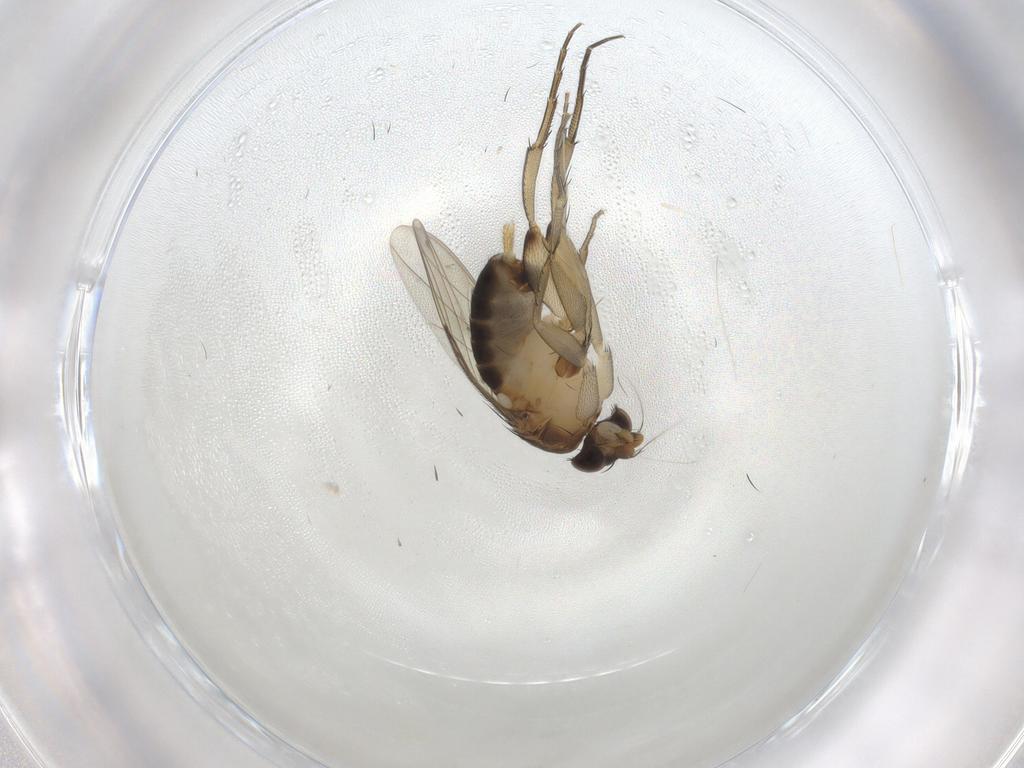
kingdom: Animalia
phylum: Arthropoda
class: Insecta
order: Diptera
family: Phoridae
